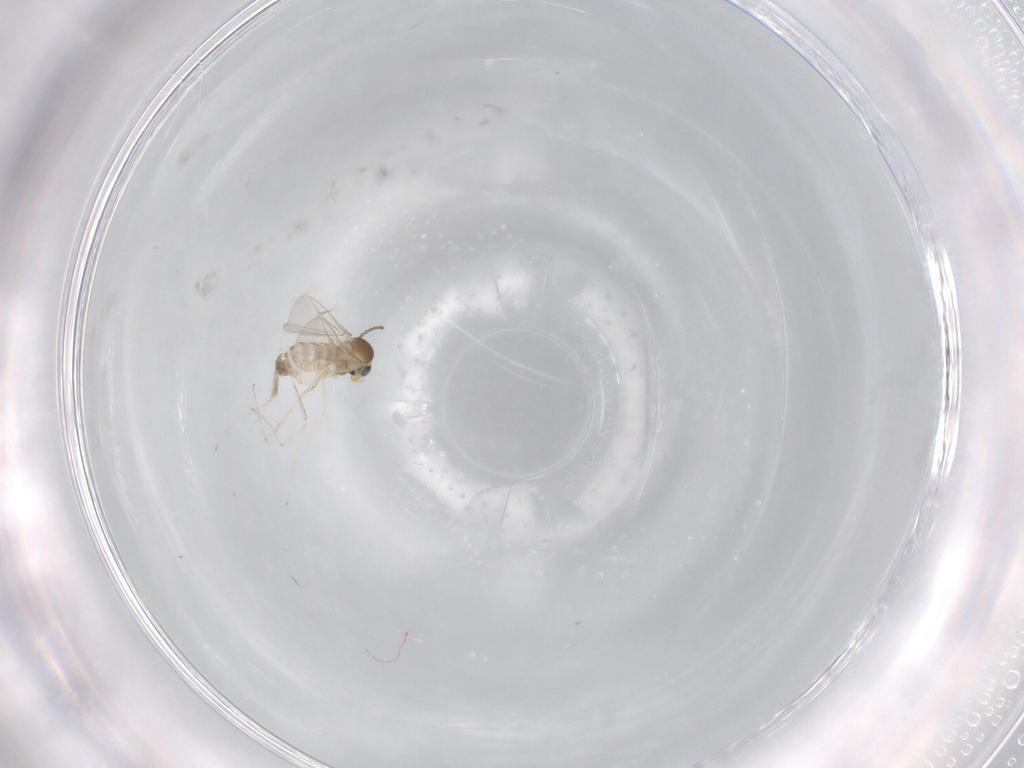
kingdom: Animalia
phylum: Arthropoda
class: Insecta
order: Diptera
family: Cecidomyiidae
